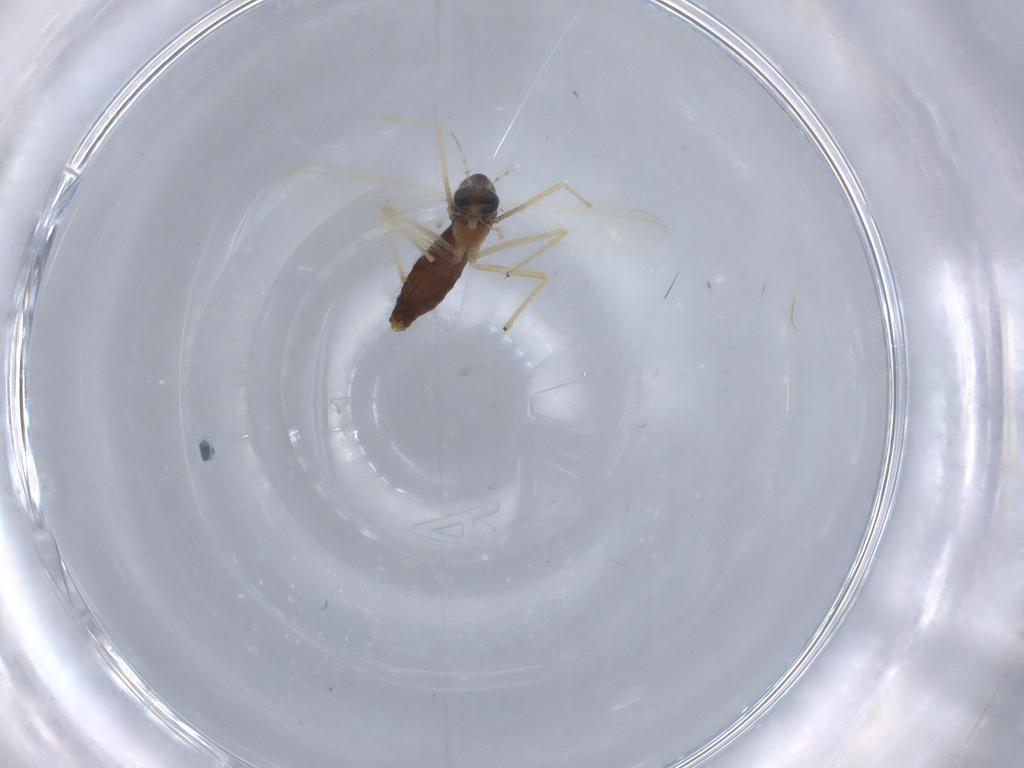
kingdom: Animalia
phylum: Arthropoda
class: Insecta
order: Diptera
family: Chironomidae
